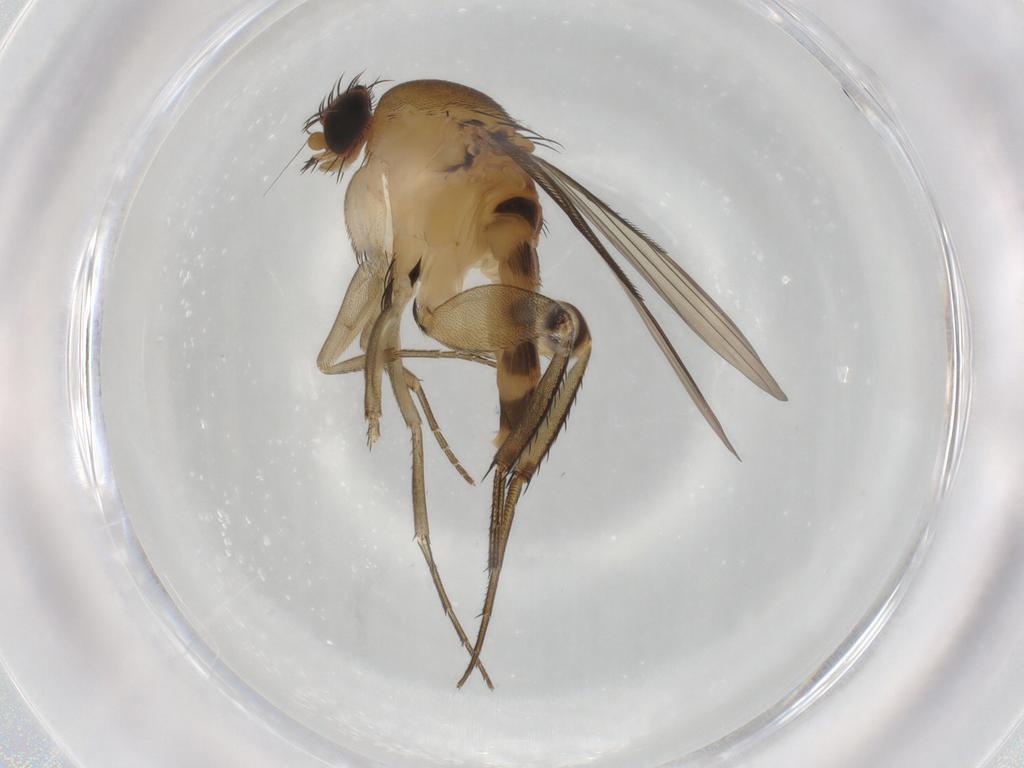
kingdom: Animalia
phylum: Arthropoda
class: Insecta
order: Diptera
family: Phoridae
